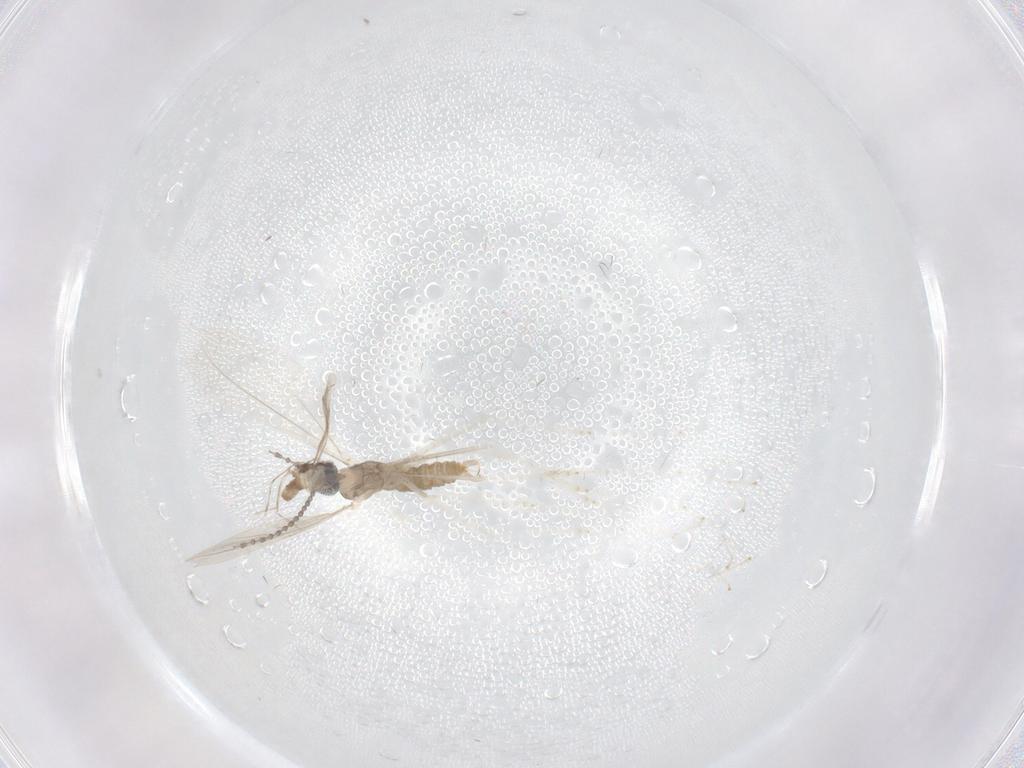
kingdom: Animalia
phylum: Arthropoda
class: Insecta
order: Diptera
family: Cecidomyiidae
